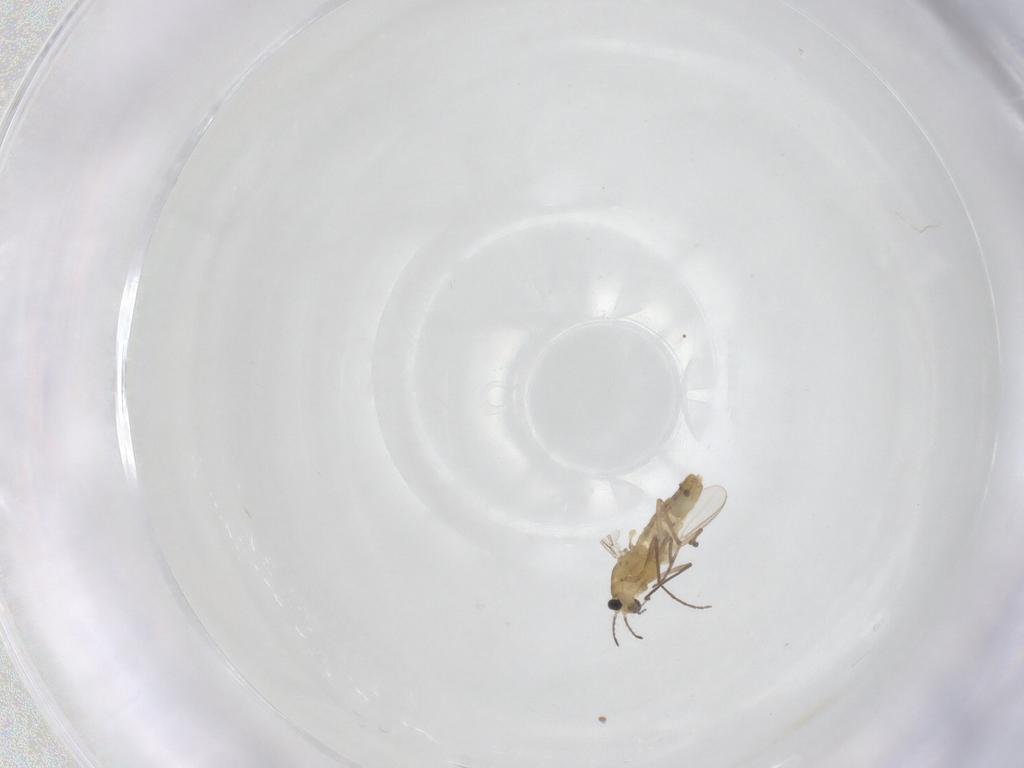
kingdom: Animalia
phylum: Arthropoda
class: Insecta
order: Diptera
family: Chironomidae
